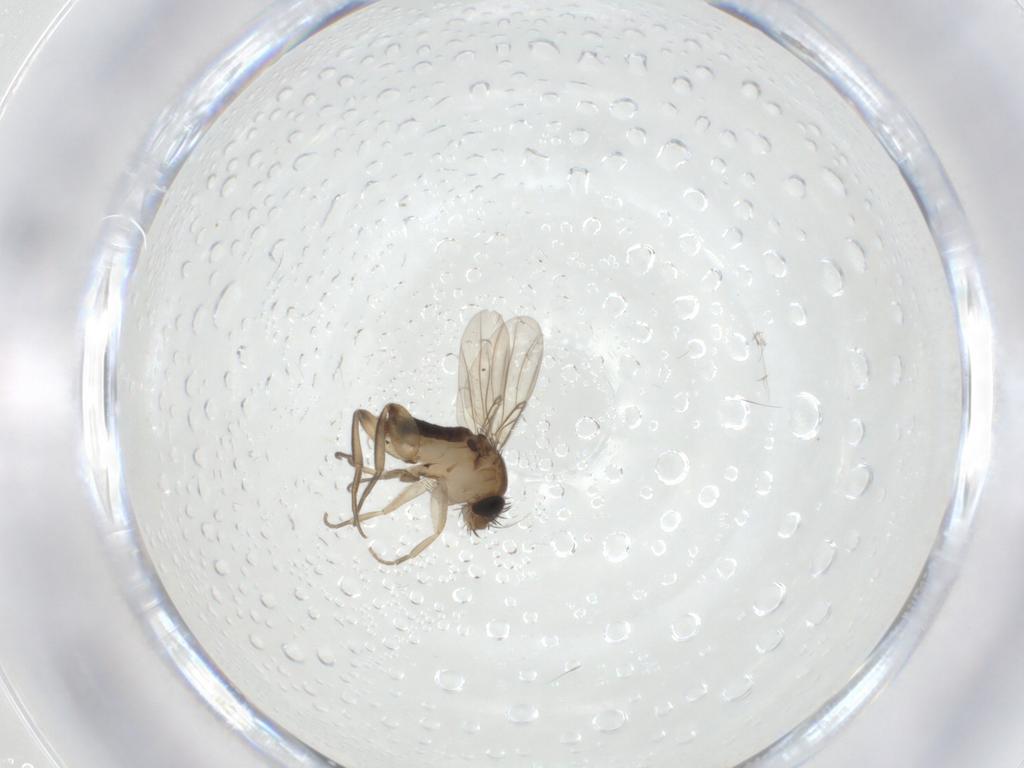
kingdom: Animalia
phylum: Arthropoda
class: Insecta
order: Diptera
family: Phoridae
